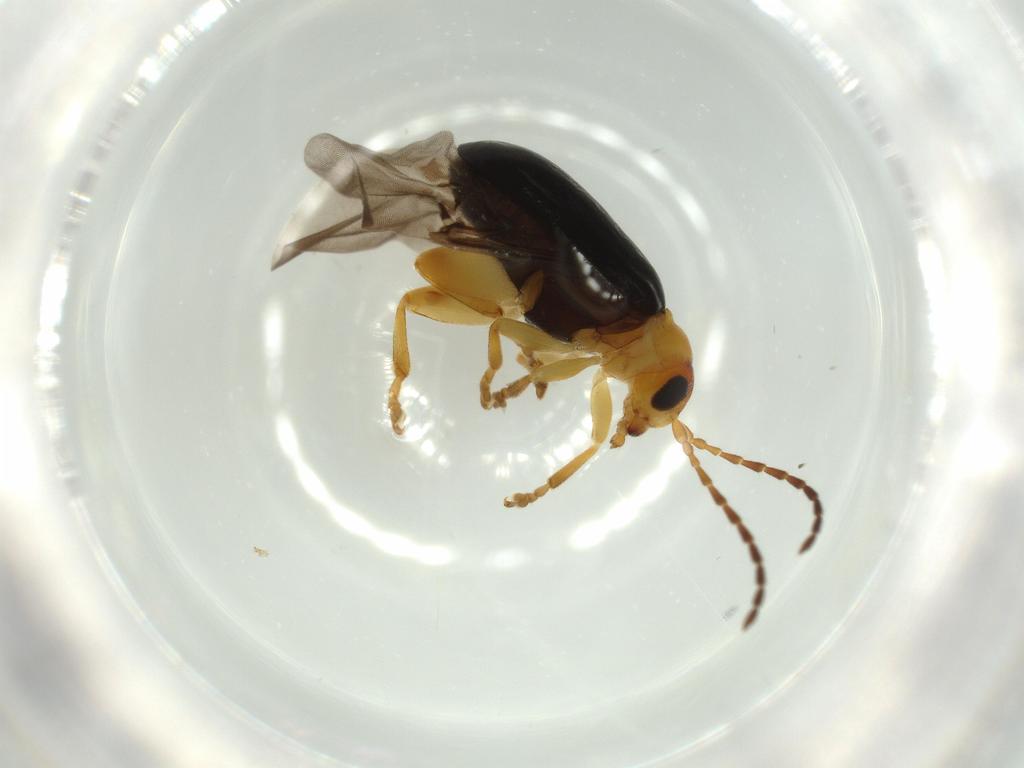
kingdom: Animalia
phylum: Arthropoda
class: Insecta
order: Coleoptera
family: Chrysomelidae
